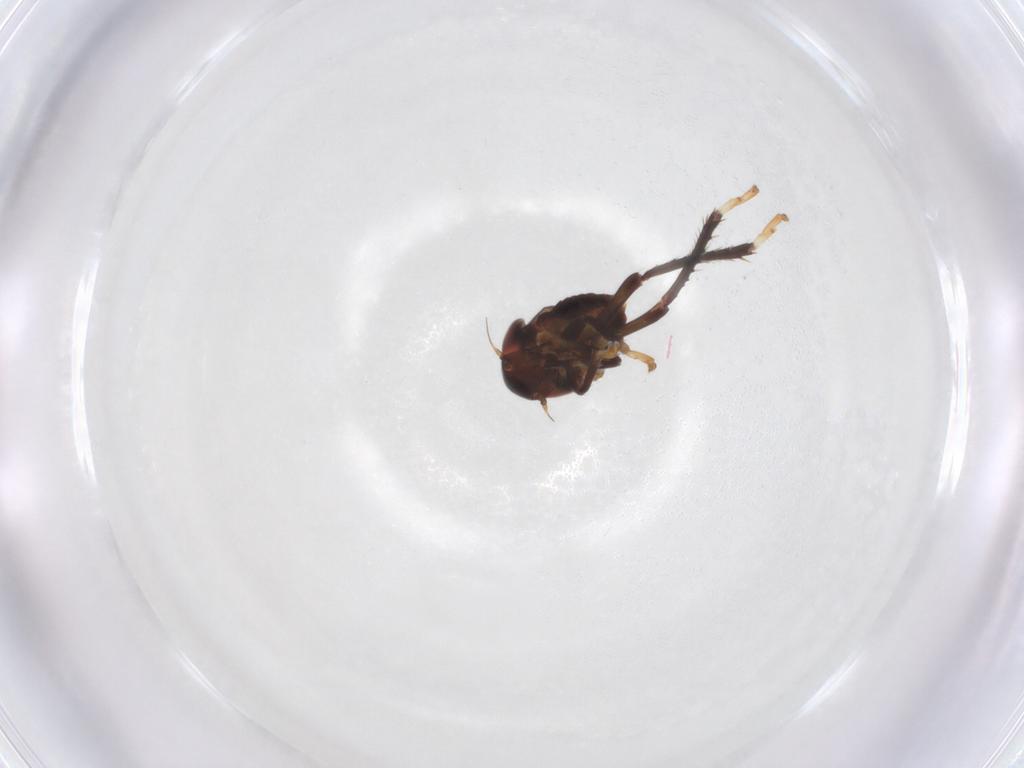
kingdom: Animalia
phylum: Arthropoda
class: Insecta
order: Hemiptera
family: Cicadellidae
